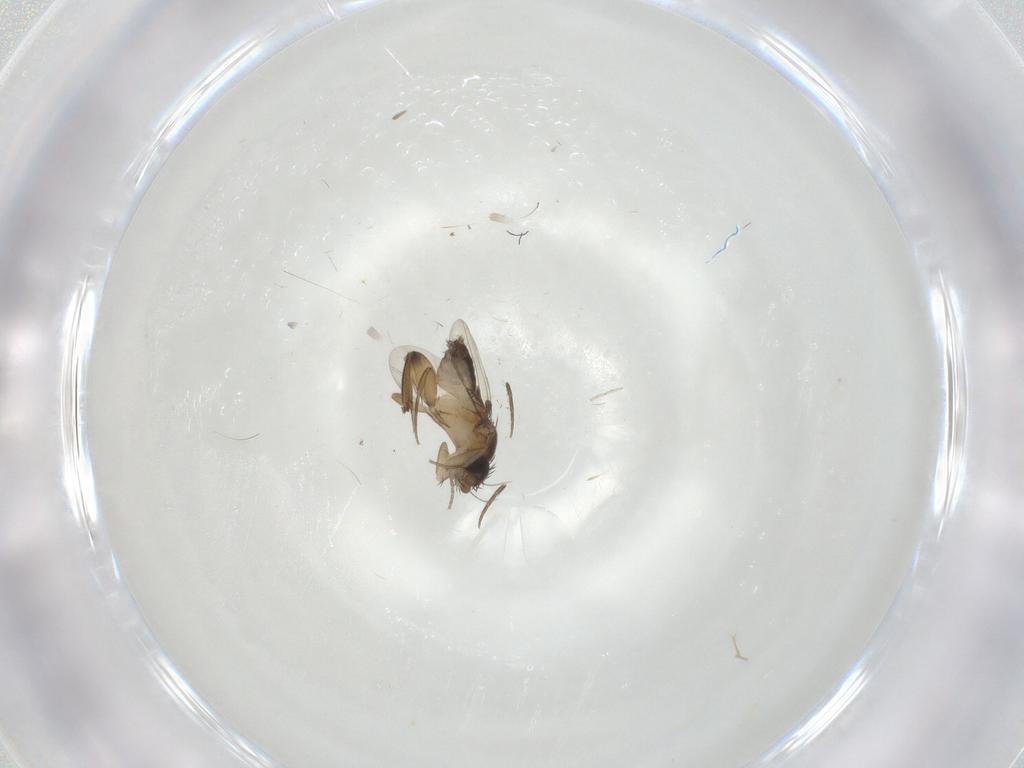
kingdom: Animalia
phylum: Arthropoda
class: Insecta
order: Diptera
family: Phoridae
